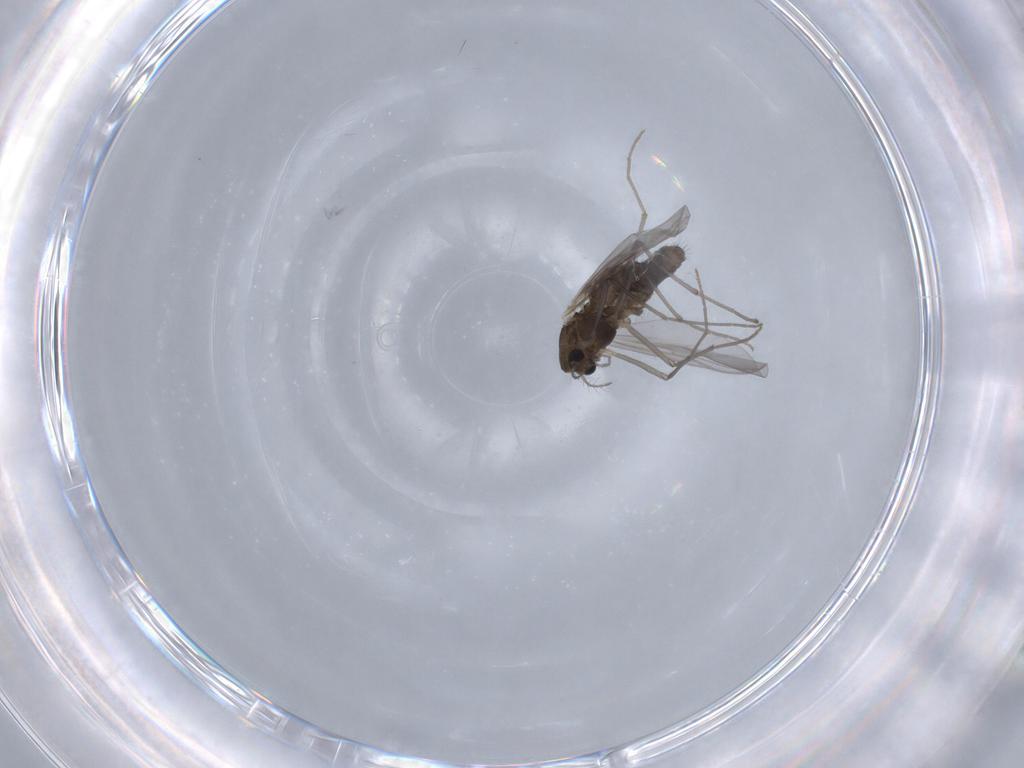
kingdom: Animalia
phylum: Arthropoda
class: Insecta
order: Diptera
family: Chironomidae
